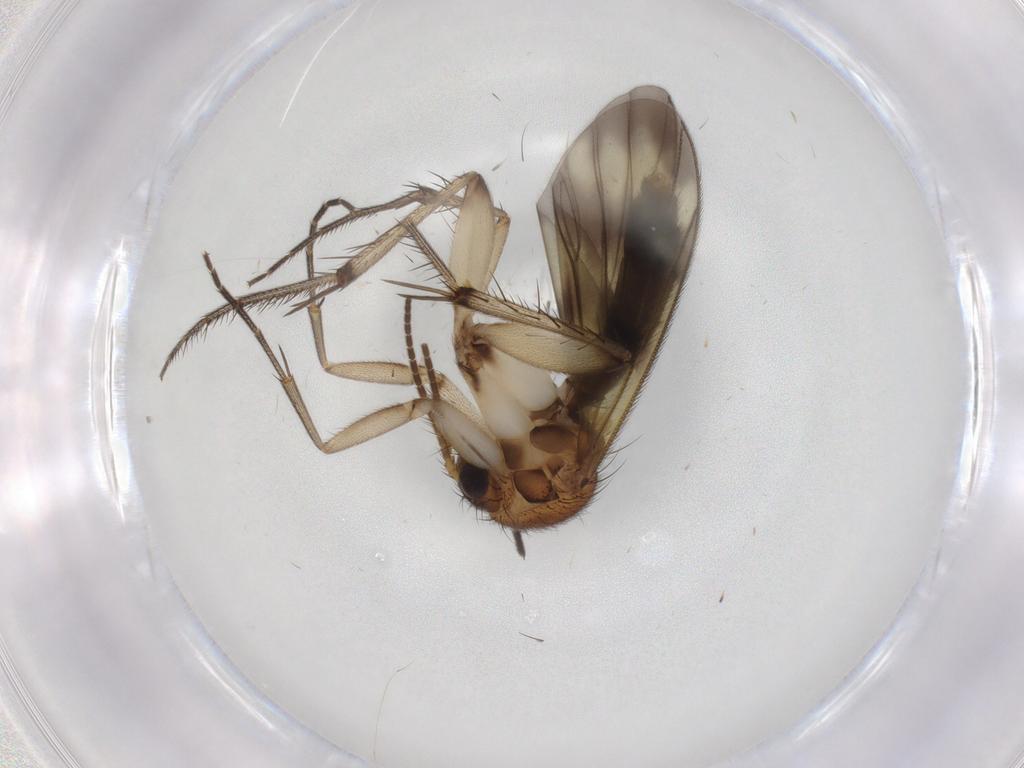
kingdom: Animalia
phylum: Arthropoda
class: Insecta
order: Diptera
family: Mycetophilidae
